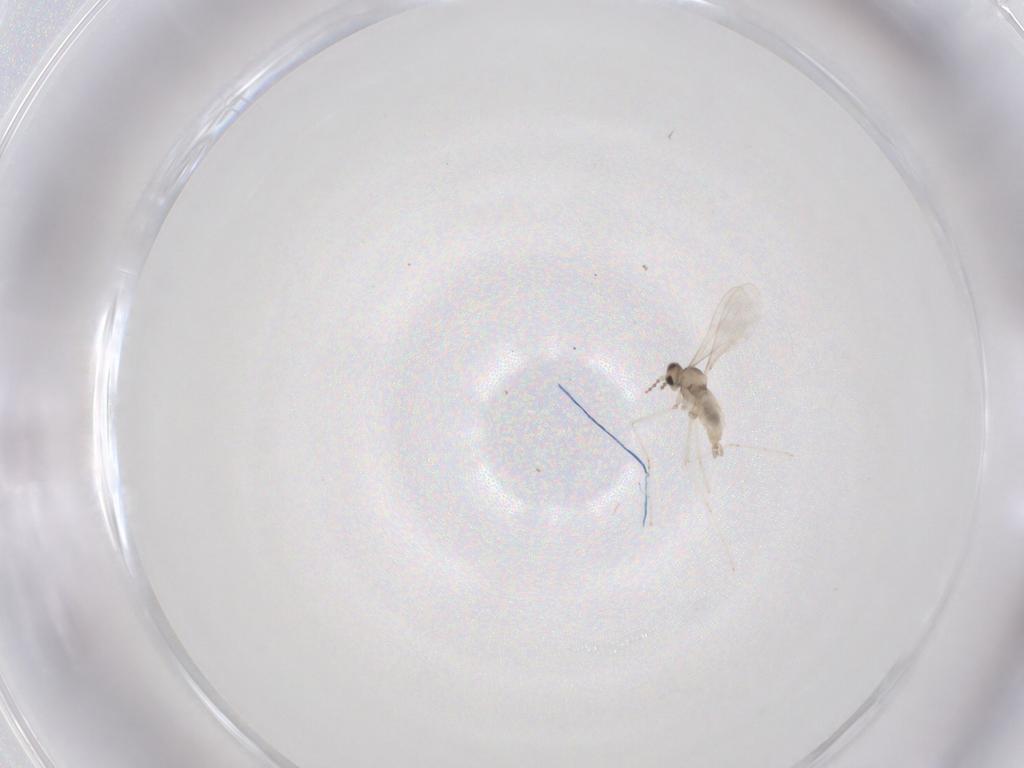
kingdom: Animalia
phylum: Arthropoda
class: Insecta
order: Diptera
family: Cecidomyiidae
